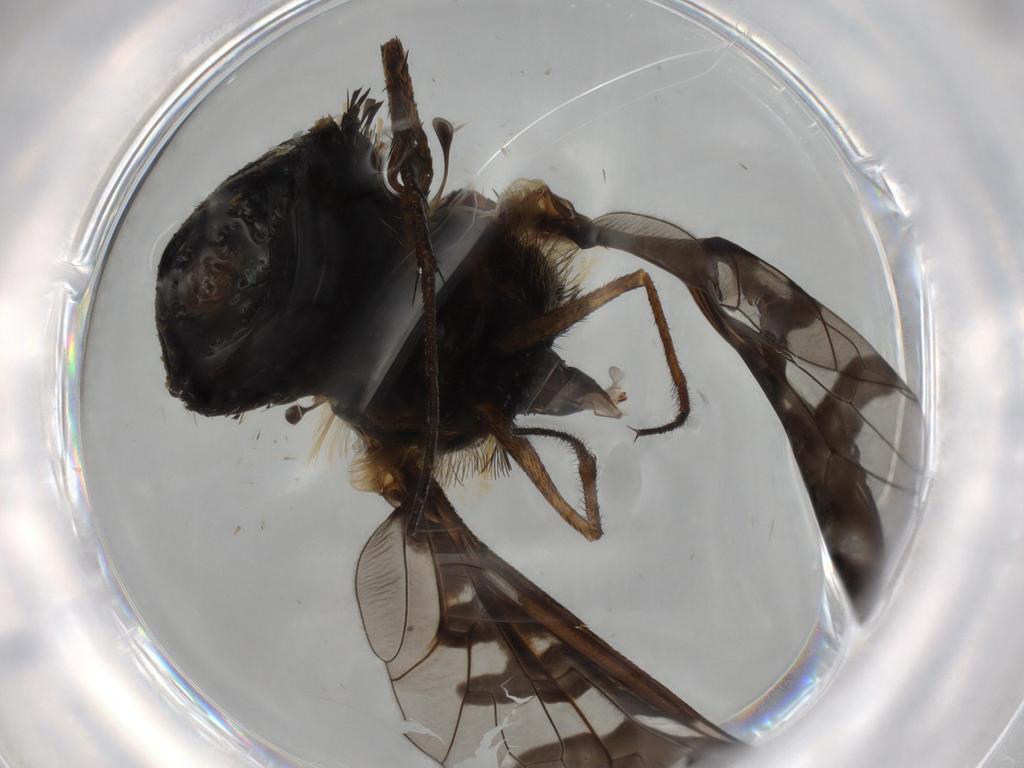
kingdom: Animalia
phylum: Arthropoda
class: Insecta
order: Diptera
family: Bombyliidae
